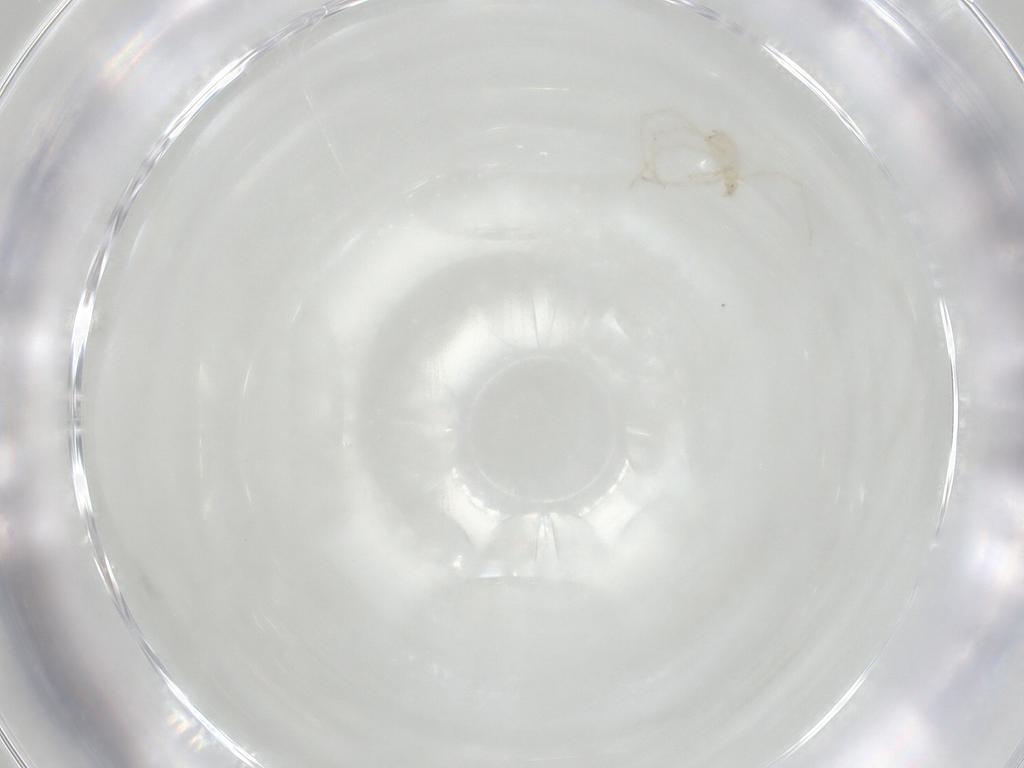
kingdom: Animalia
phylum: Arthropoda
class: Arachnida
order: Trombidiformes
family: Erythraeidae
